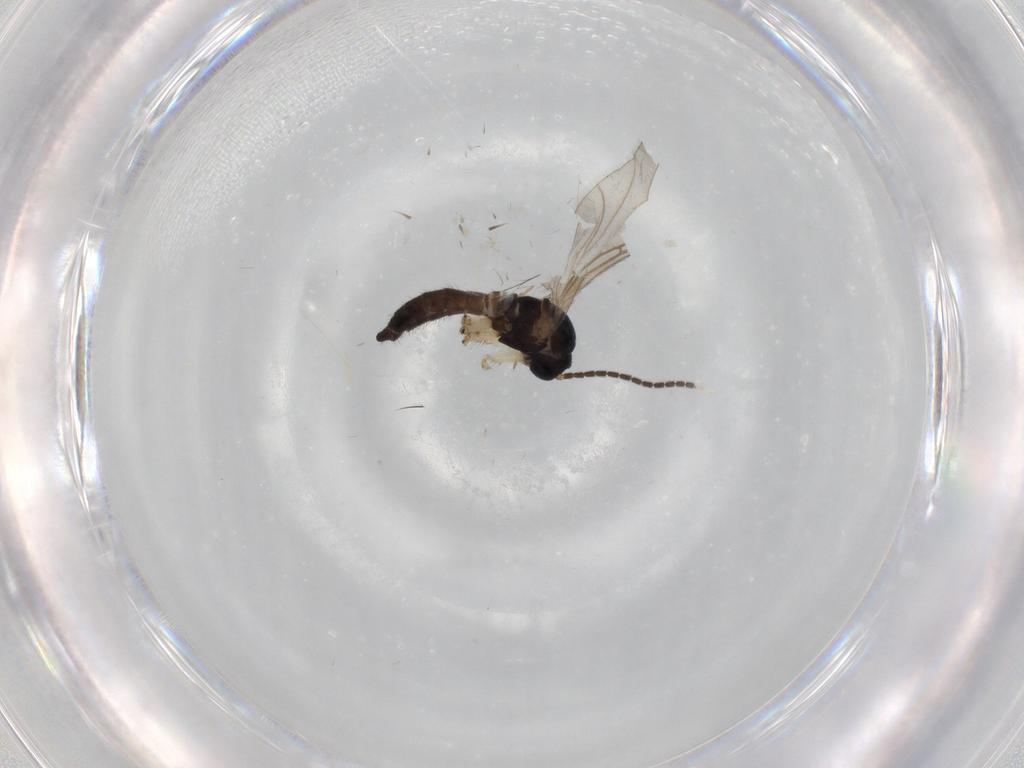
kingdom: Animalia
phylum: Arthropoda
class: Insecta
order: Diptera
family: Sciaridae
